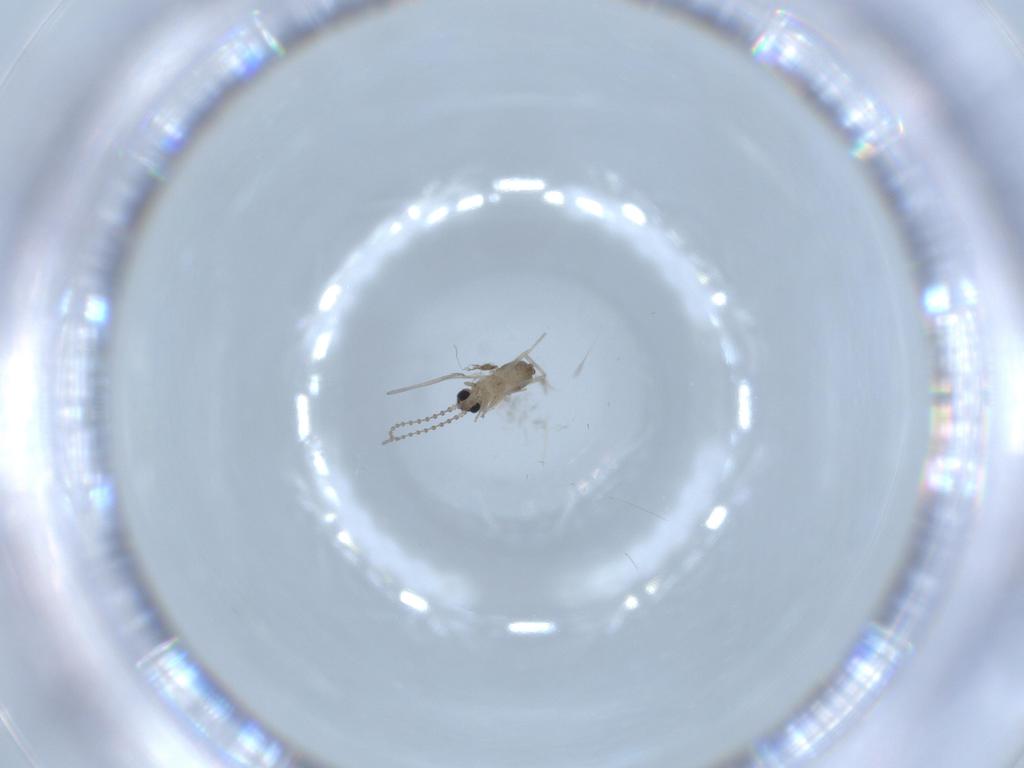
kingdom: Animalia
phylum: Arthropoda
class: Insecta
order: Diptera
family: Cecidomyiidae
